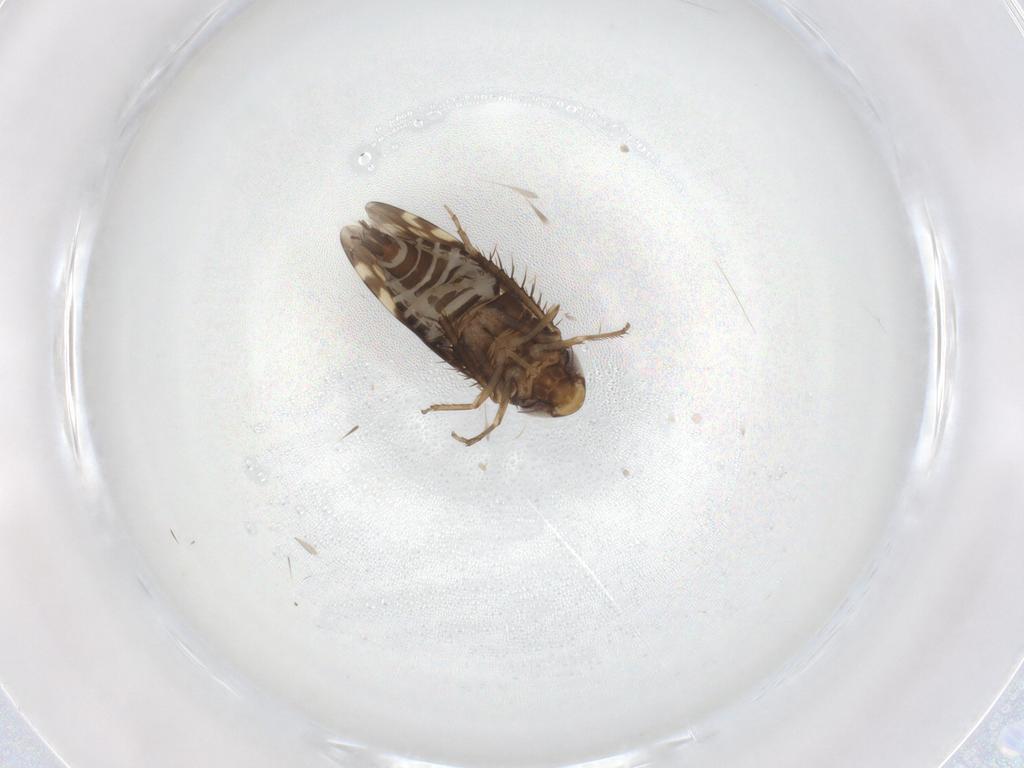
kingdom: Animalia
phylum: Arthropoda
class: Insecta
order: Hemiptera
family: Cicadellidae
